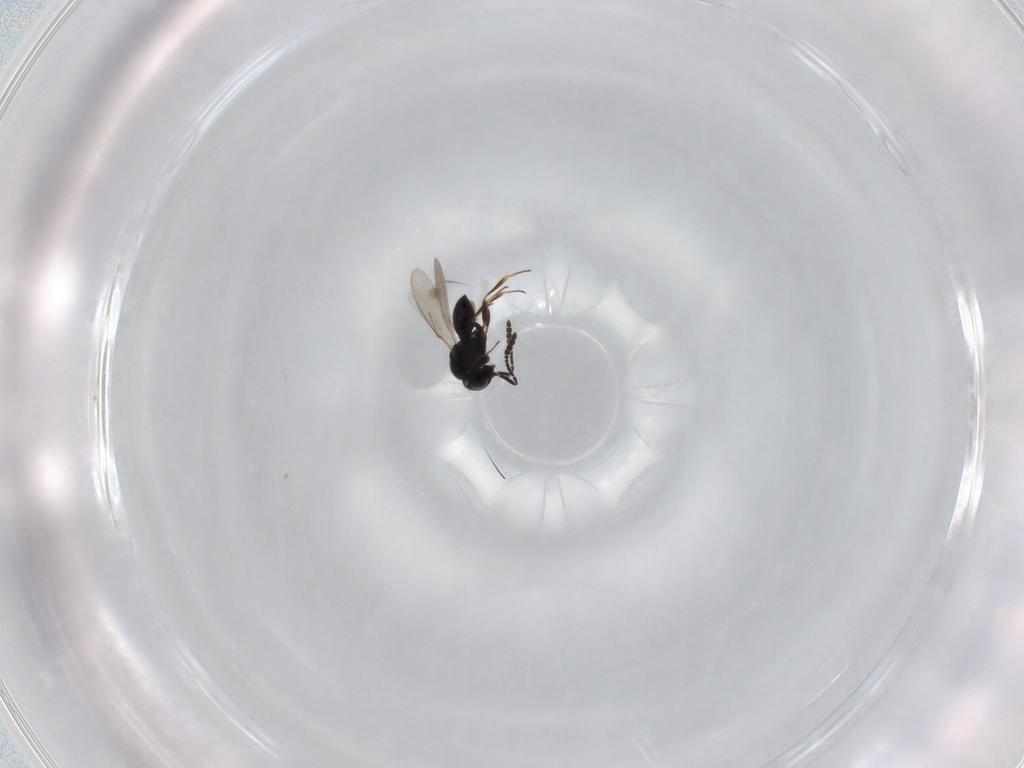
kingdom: Animalia
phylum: Arthropoda
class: Insecta
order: Hymenoptera
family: Scelionidae
